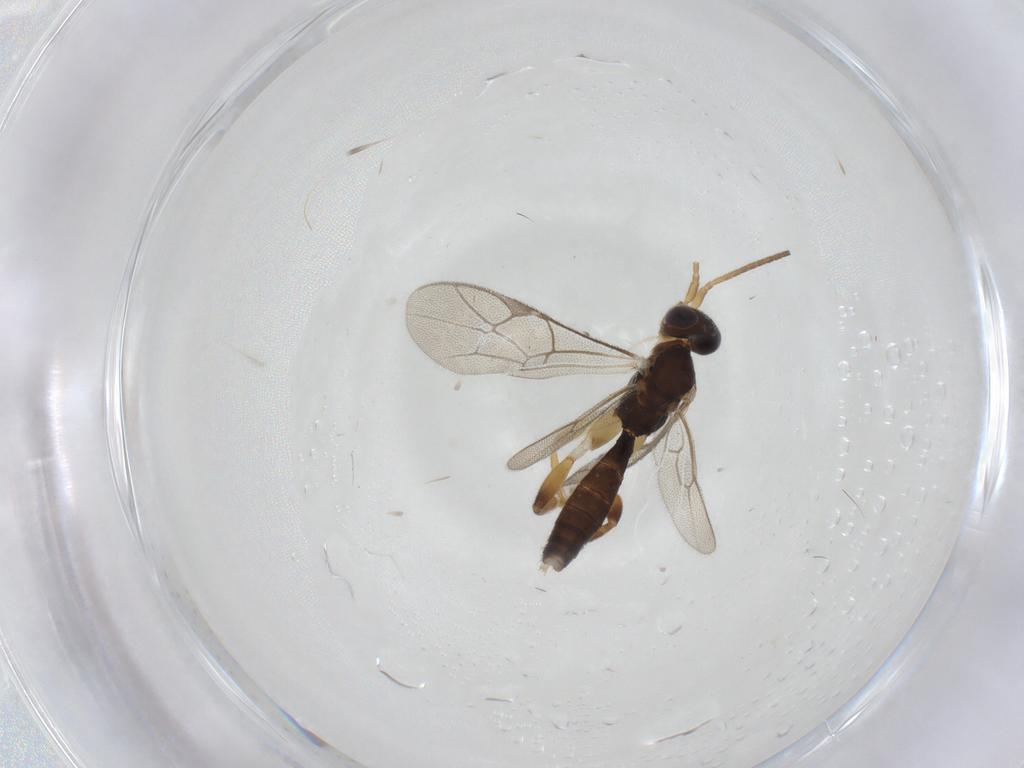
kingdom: Animalia
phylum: Arthropoda
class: Insecta
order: Hymenoptera
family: Ichneumonidae
